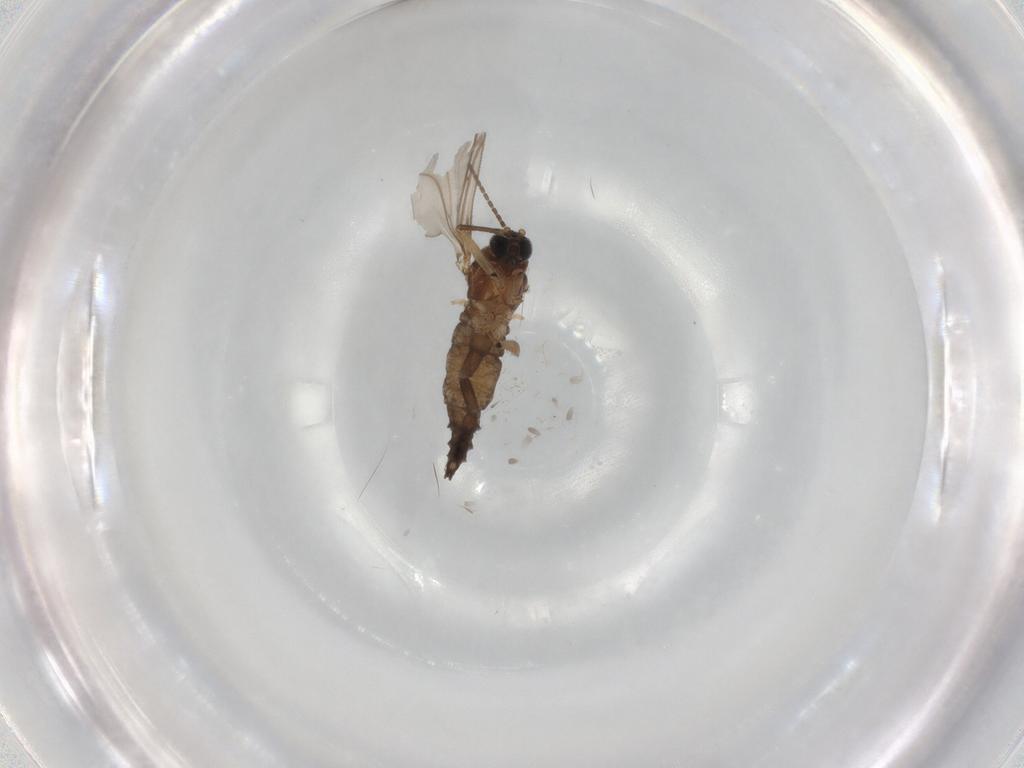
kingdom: Animalia
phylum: Arthropoda
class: Insecta
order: Diptera
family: Sciaridae
